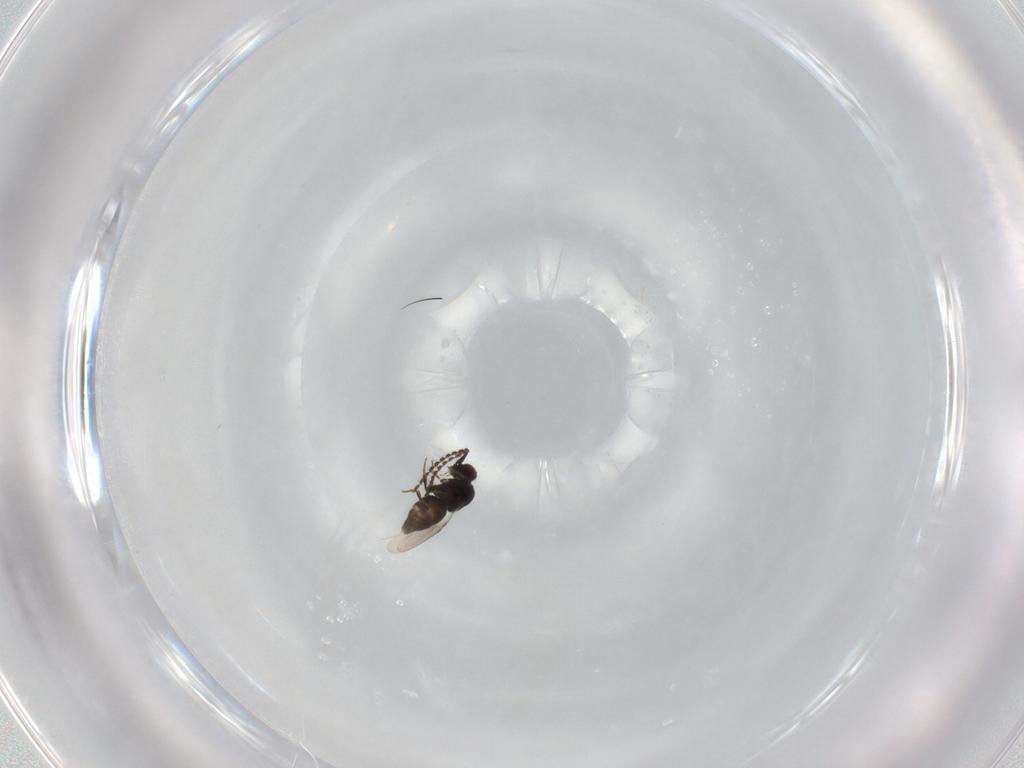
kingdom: Animalia
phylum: Arthropoda
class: Insecta
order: Hymenoptera
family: Ceraphronidae
